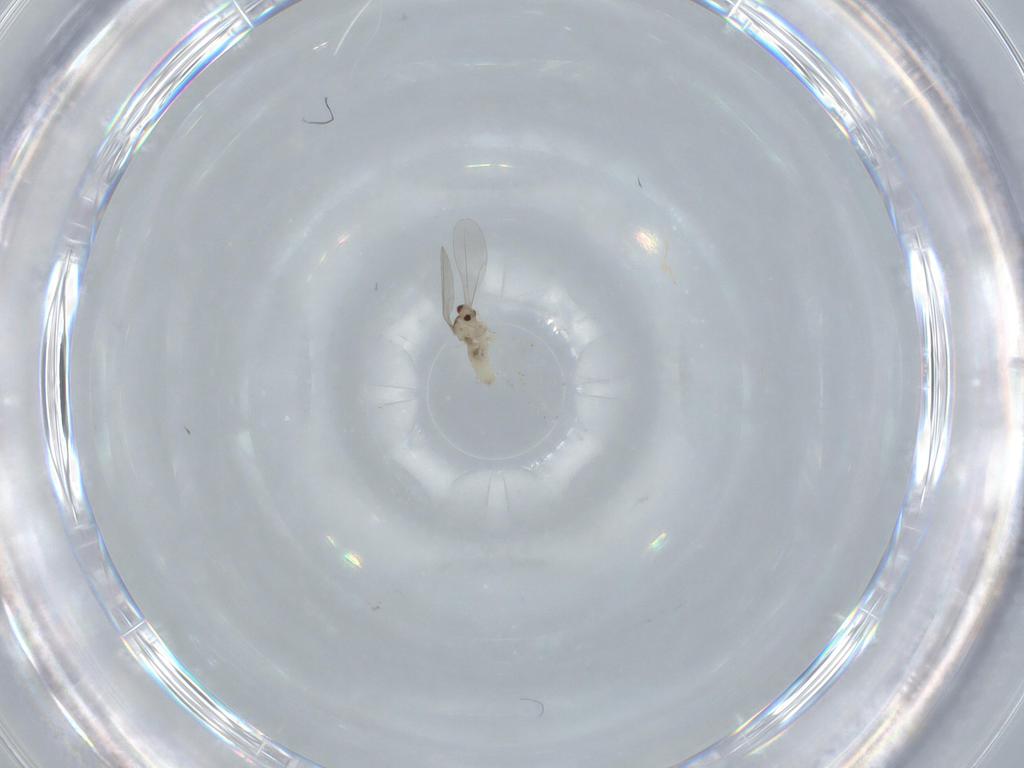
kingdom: Animalia
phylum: Arthropoda
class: Insecta
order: Diptera
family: Cecidomyiidae
